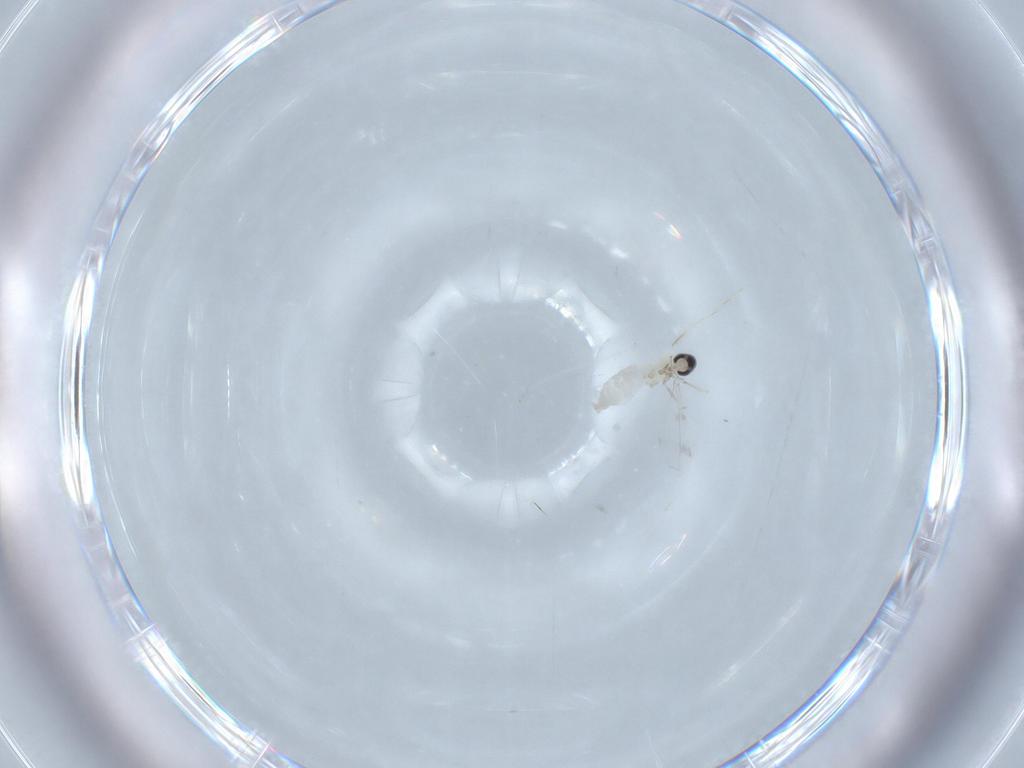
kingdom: Animalia
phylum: Arthropoda
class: Insecta
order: Diptera
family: Cecidomyiidae
